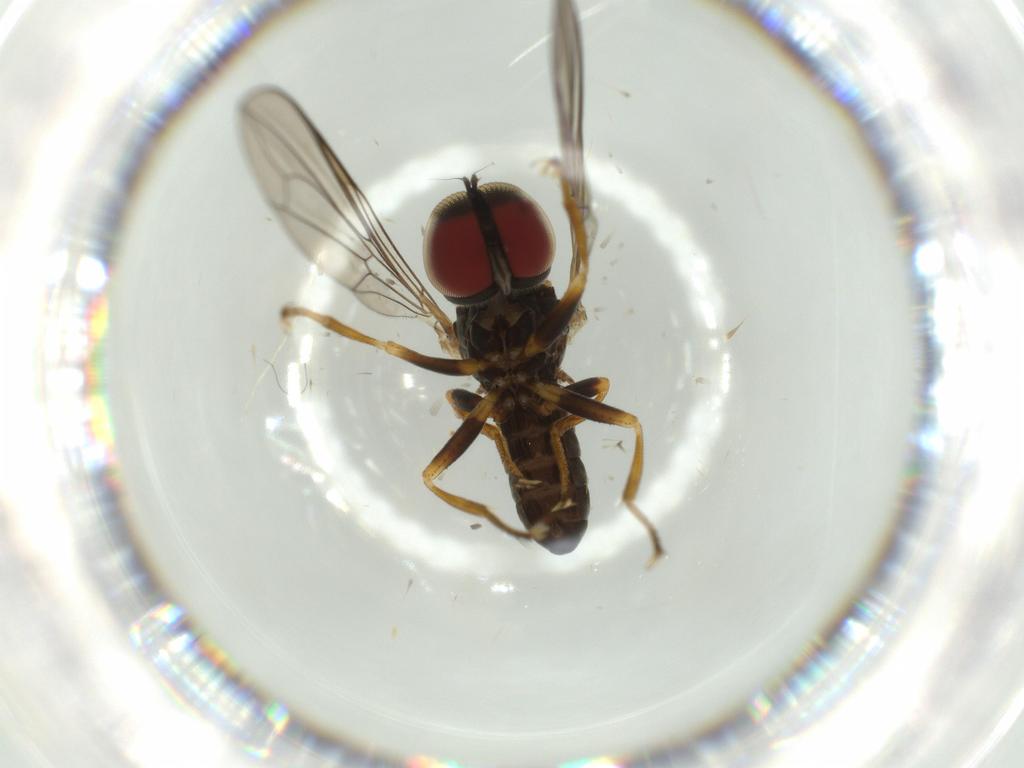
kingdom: Animalia
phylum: Arthropoda
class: Insecta
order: Diptera
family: Pipunculidae
